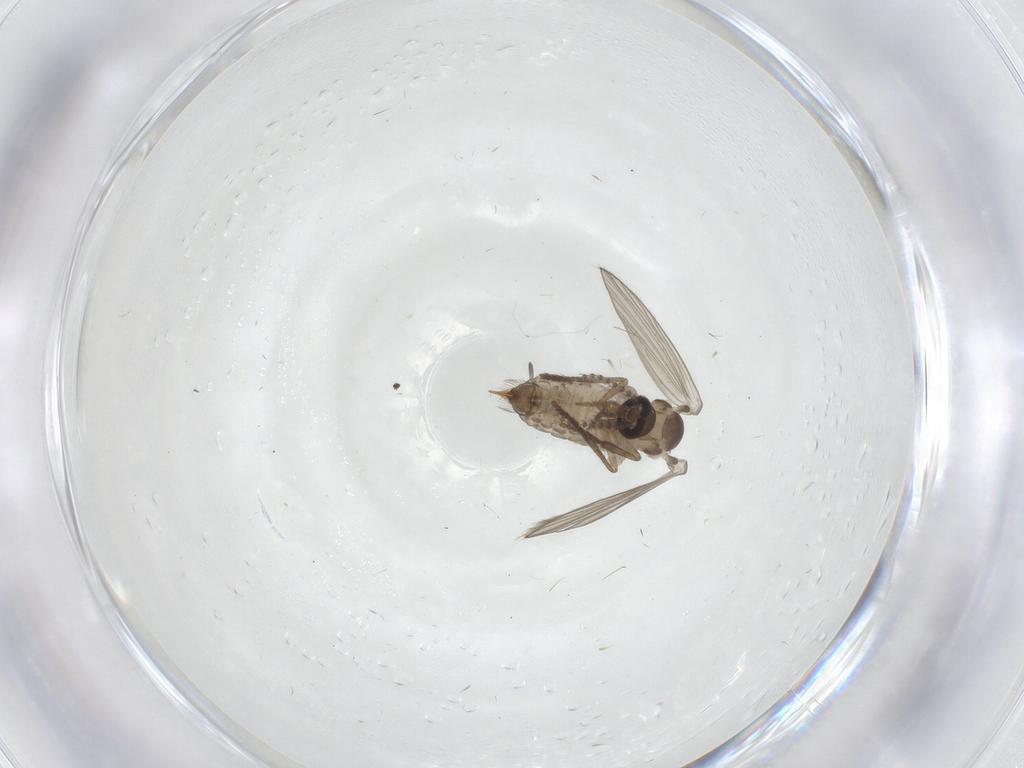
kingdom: Animalia
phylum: Arthropoda
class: Insecta
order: Diptera
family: Psychodidae
